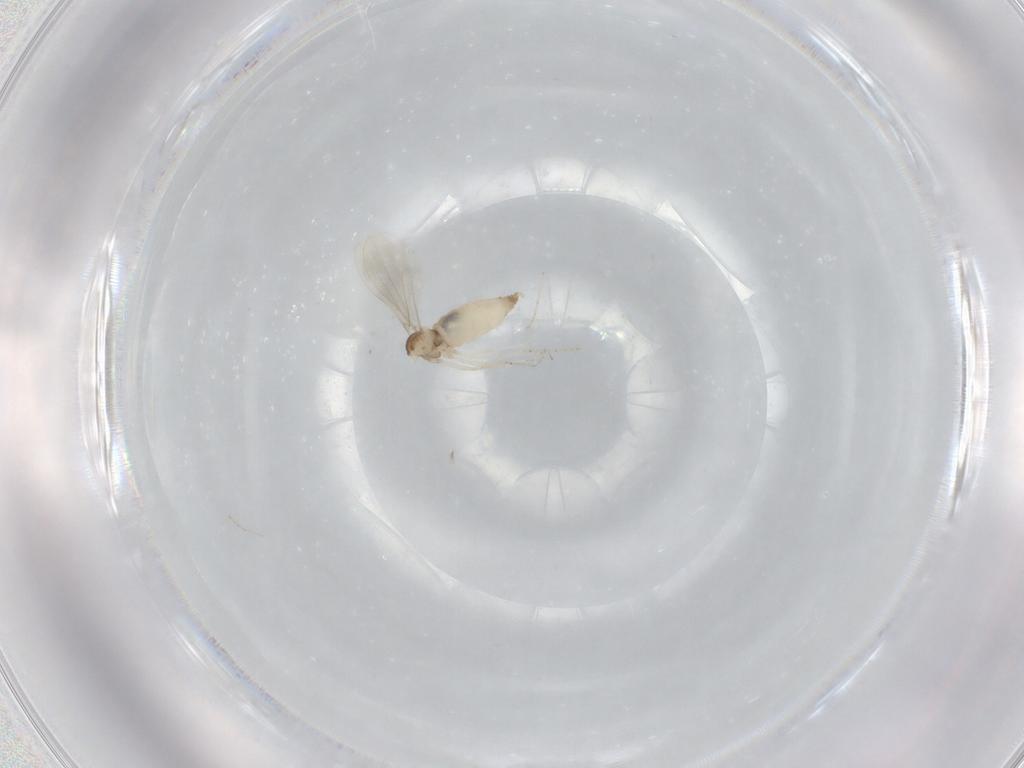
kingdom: Animalia
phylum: Arthropoda
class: Insecta
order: Diptera
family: Cecidomyiidae
